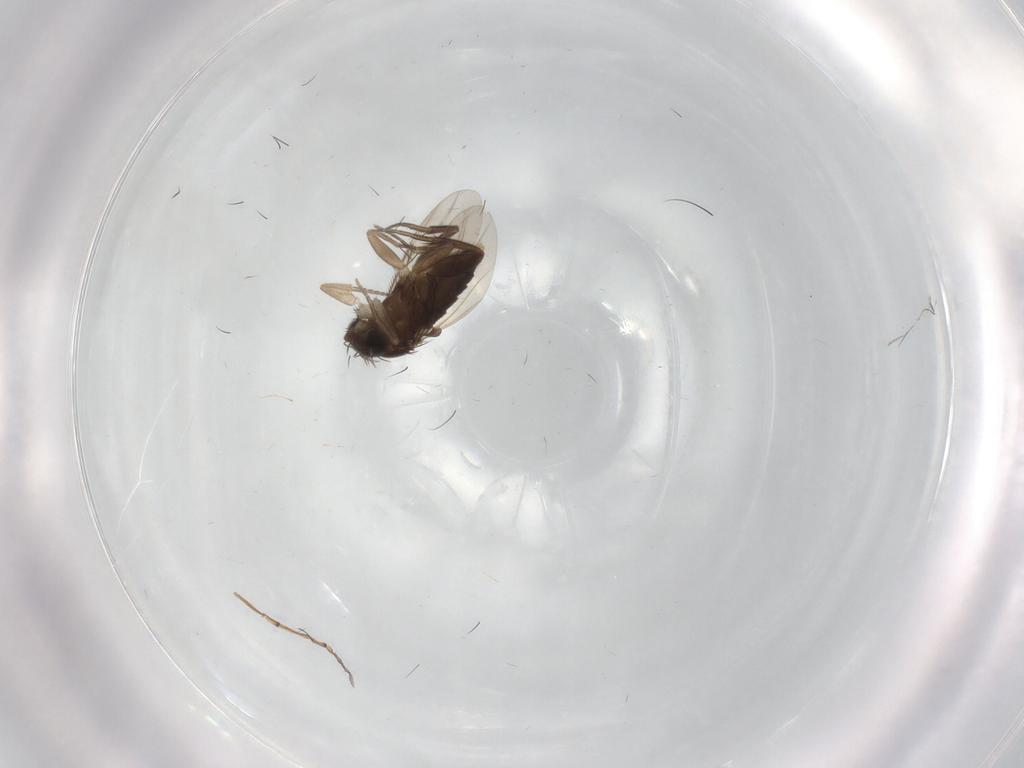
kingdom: Animalia
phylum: Arthropoda
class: Insecta
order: Diptera
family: Phoridae
